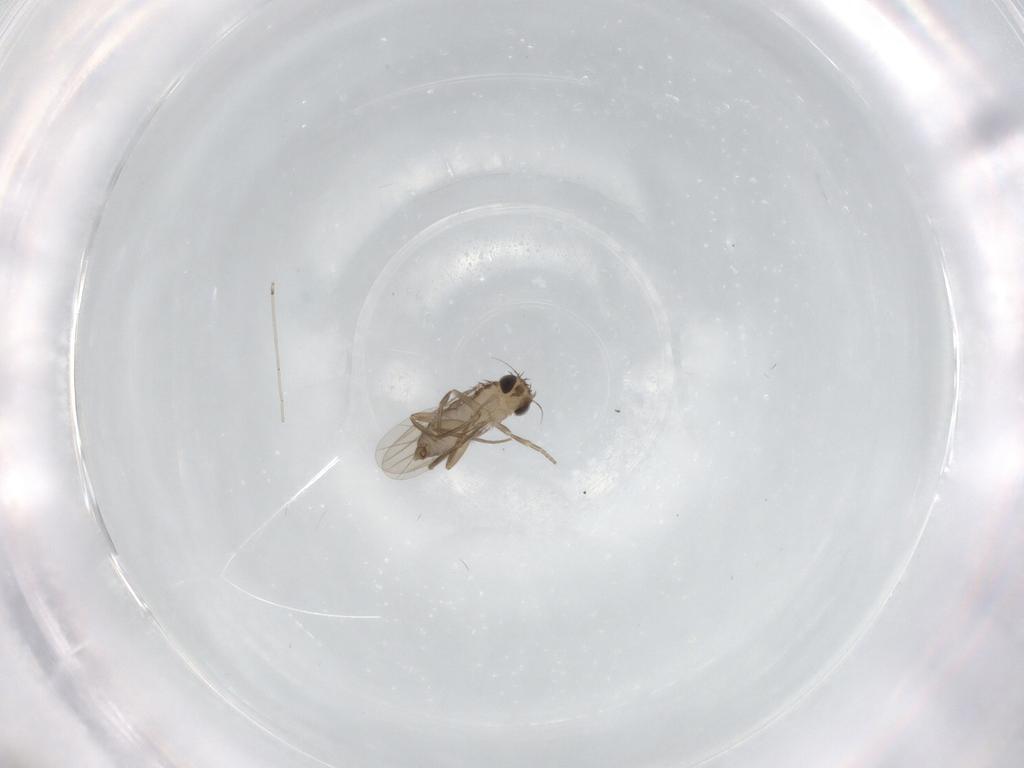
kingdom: Animalia
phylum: Arthropoda
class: Insecta
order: Diptera
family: Phoridae
